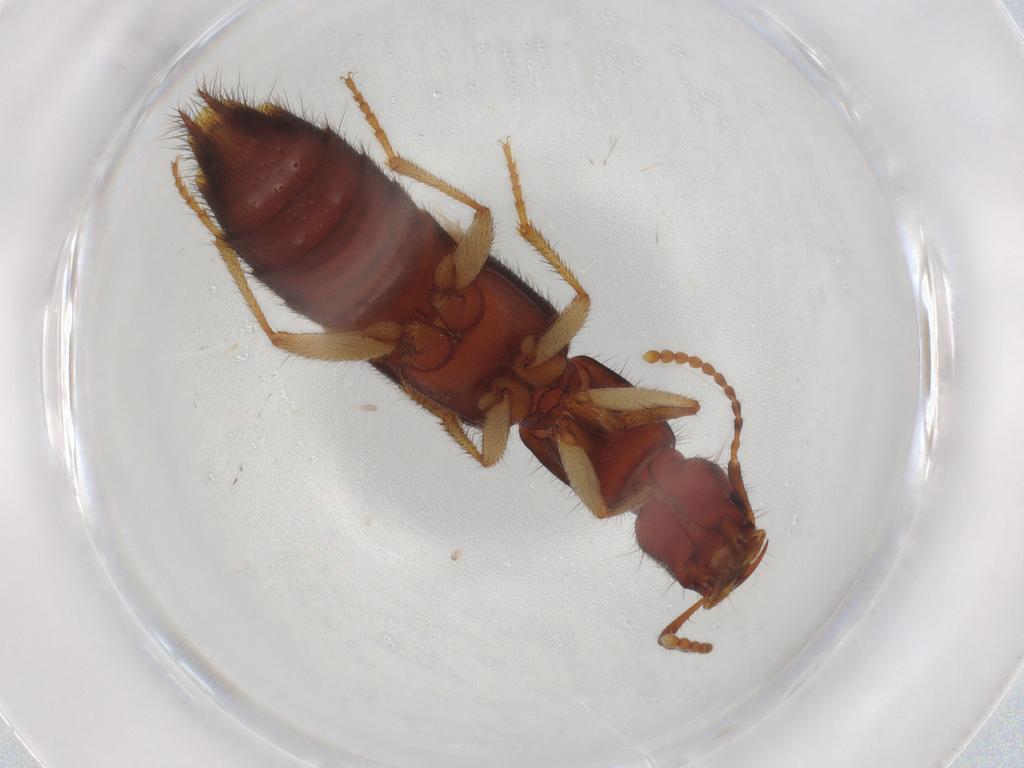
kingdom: Animalia
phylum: Arthropoda
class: Insecta
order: Coleoptera
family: Staphylinidae
